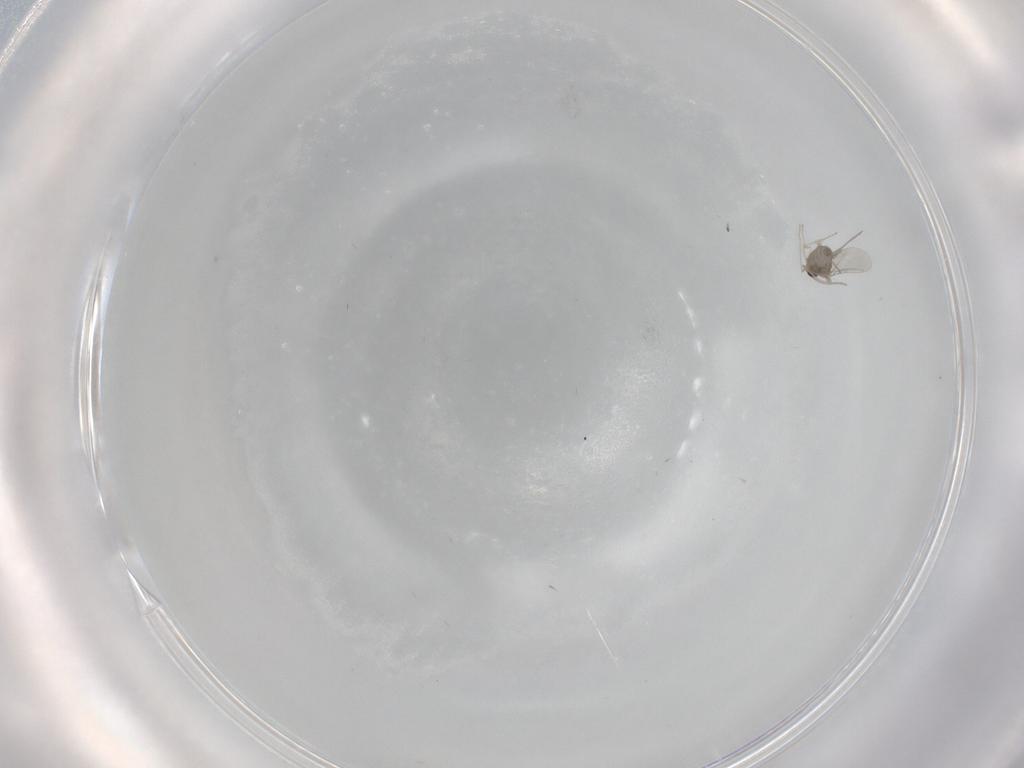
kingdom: Animalia
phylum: Arthropoda
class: Insecta
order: Diptera
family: Cecidomyiidae
